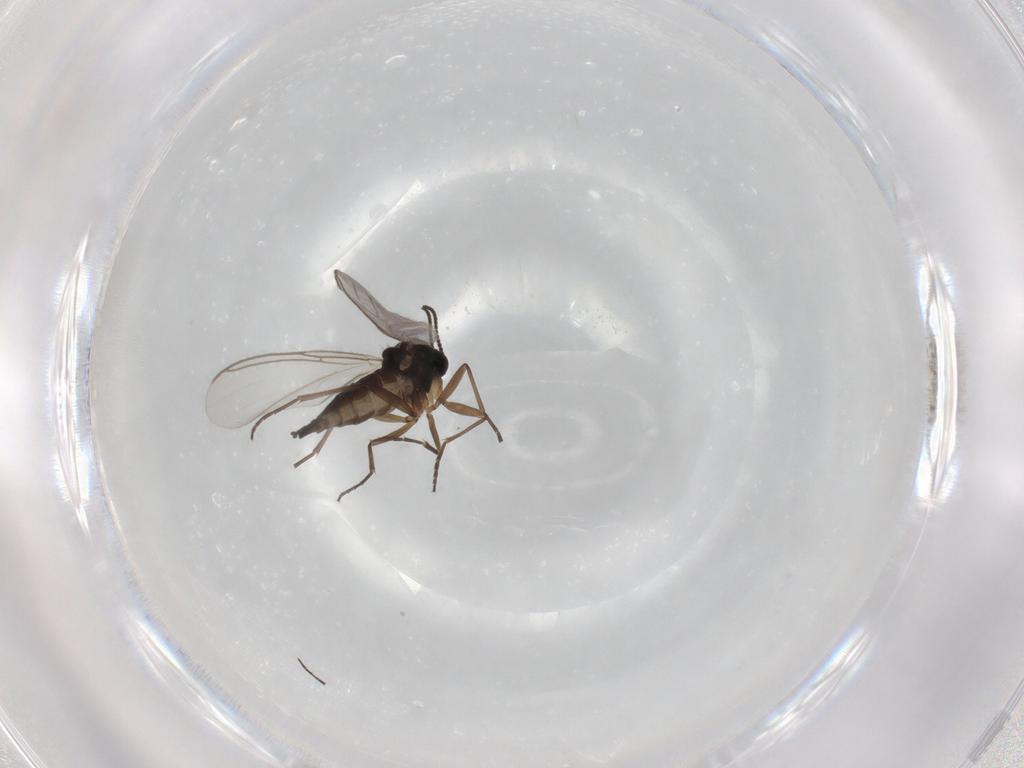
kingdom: Animalia
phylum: Arthropoda
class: Insecta
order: Diptera
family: Sciaridae
